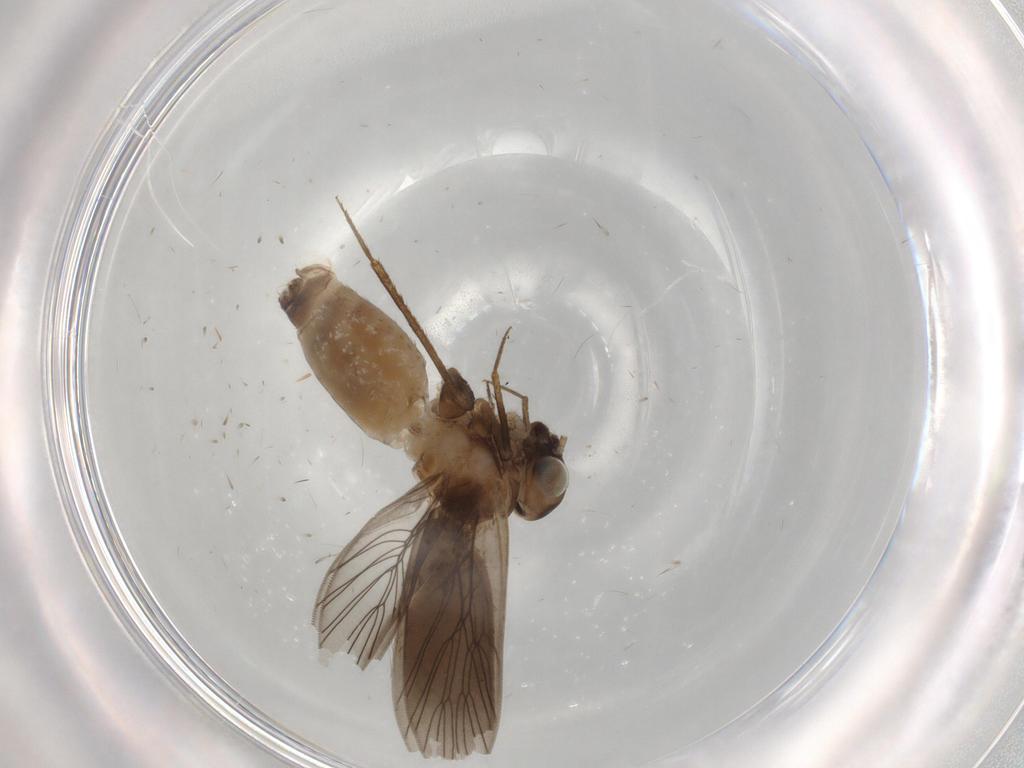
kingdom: Animalia
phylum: Arthropoda
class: Insecta
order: Psocodea
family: Lepidopsocidae
